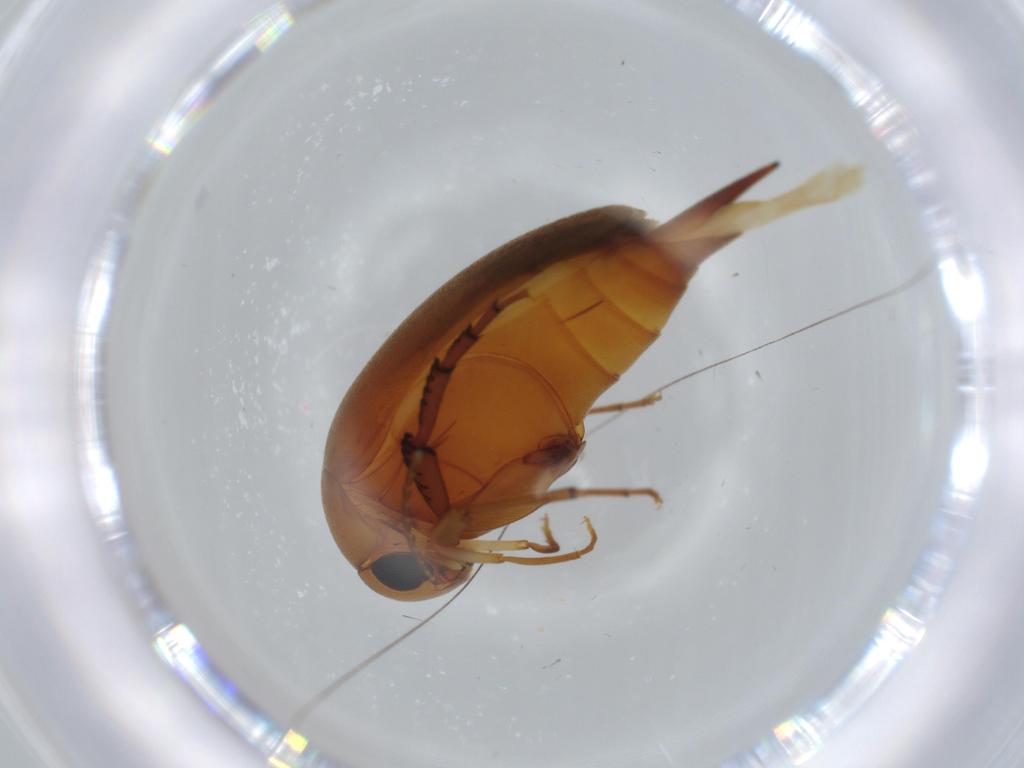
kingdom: Animalia
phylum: Arthropoda
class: Insecta
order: Coleoptera
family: Mordellidae
